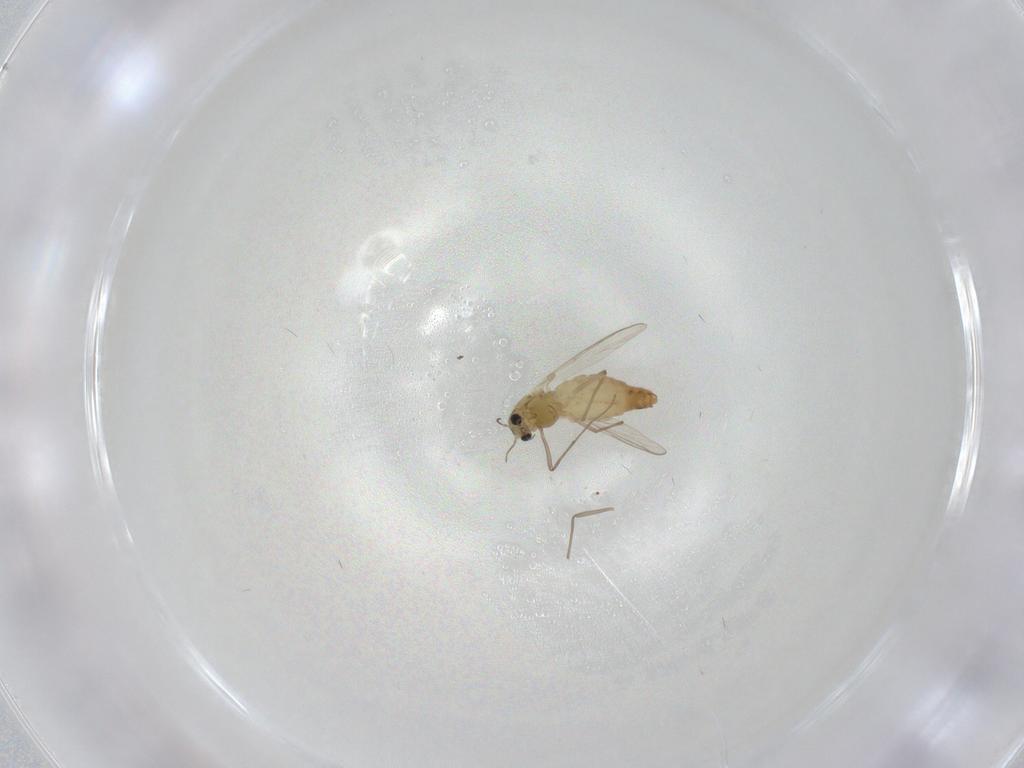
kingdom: Animalia
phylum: Arthropoda
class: Insecta
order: Diptera
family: Chironomidae
